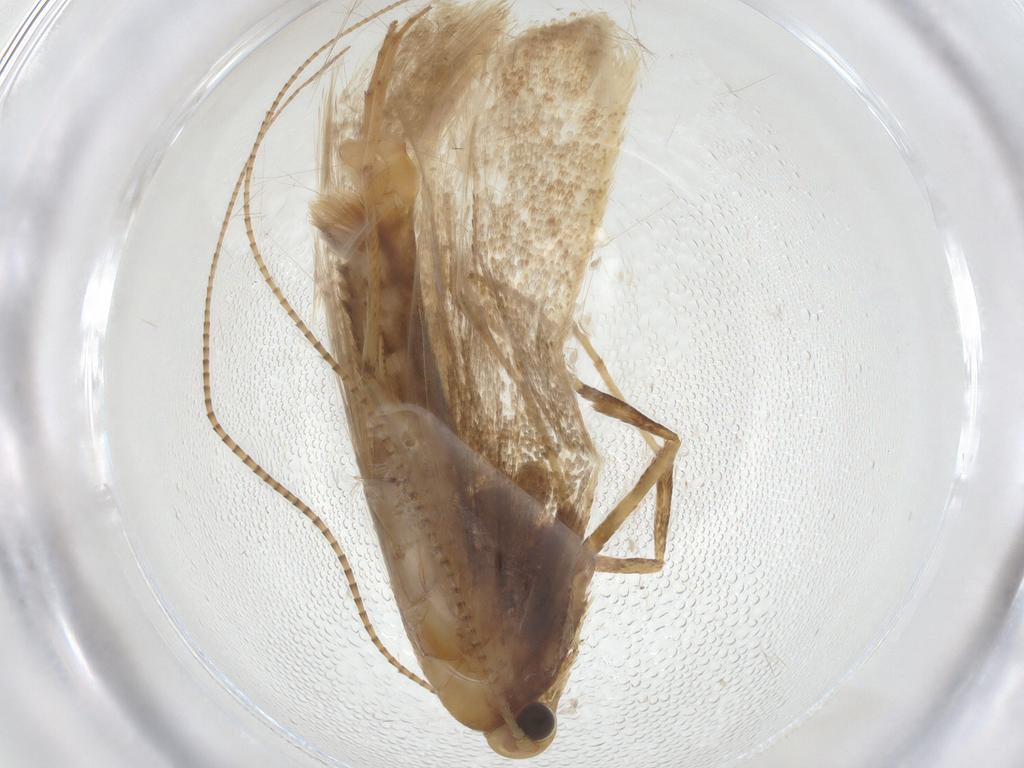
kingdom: Animalia
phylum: Arthropoda
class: Insecta
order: Lepidoptera
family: Gracillariidae
